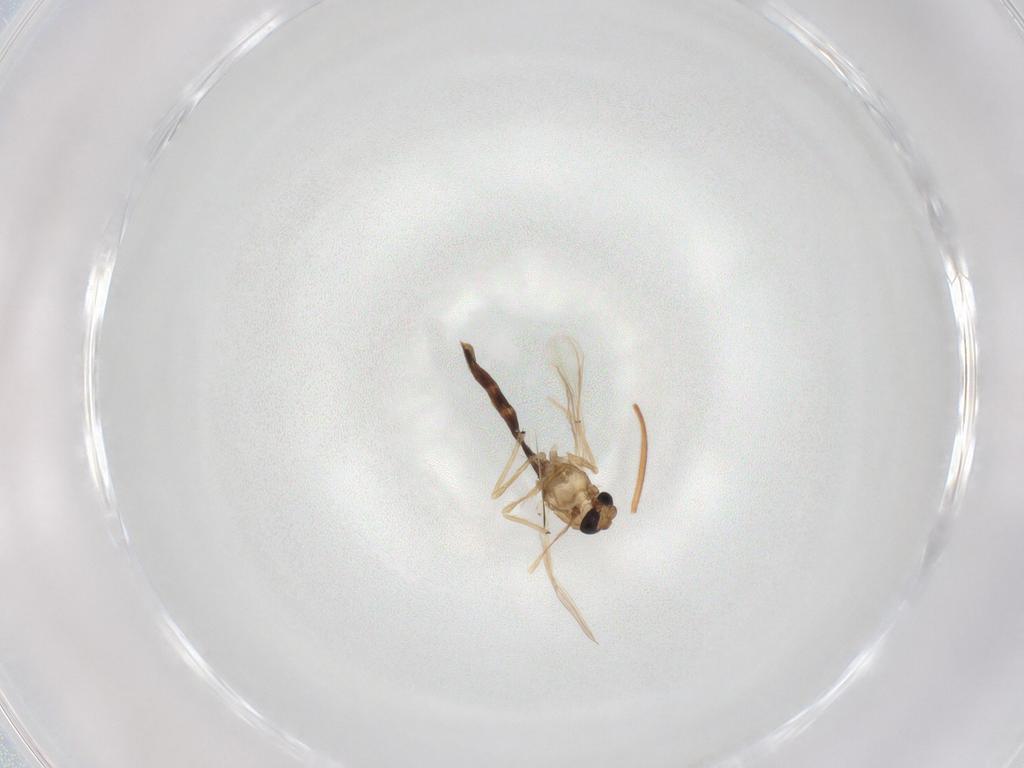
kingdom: Animalia
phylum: Arthropoda
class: Insecta
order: Diptera
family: Chironomidae
